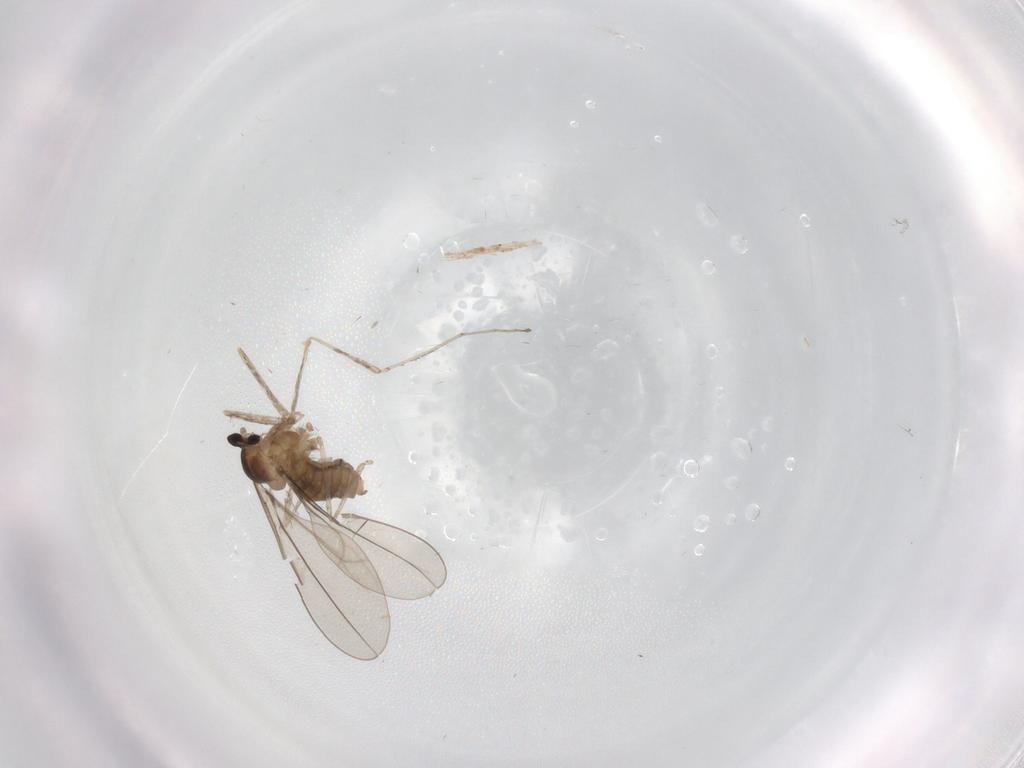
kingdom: Animalia
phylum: Arthropoda
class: Insecta
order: Diptera
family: Cecidomyiidae
